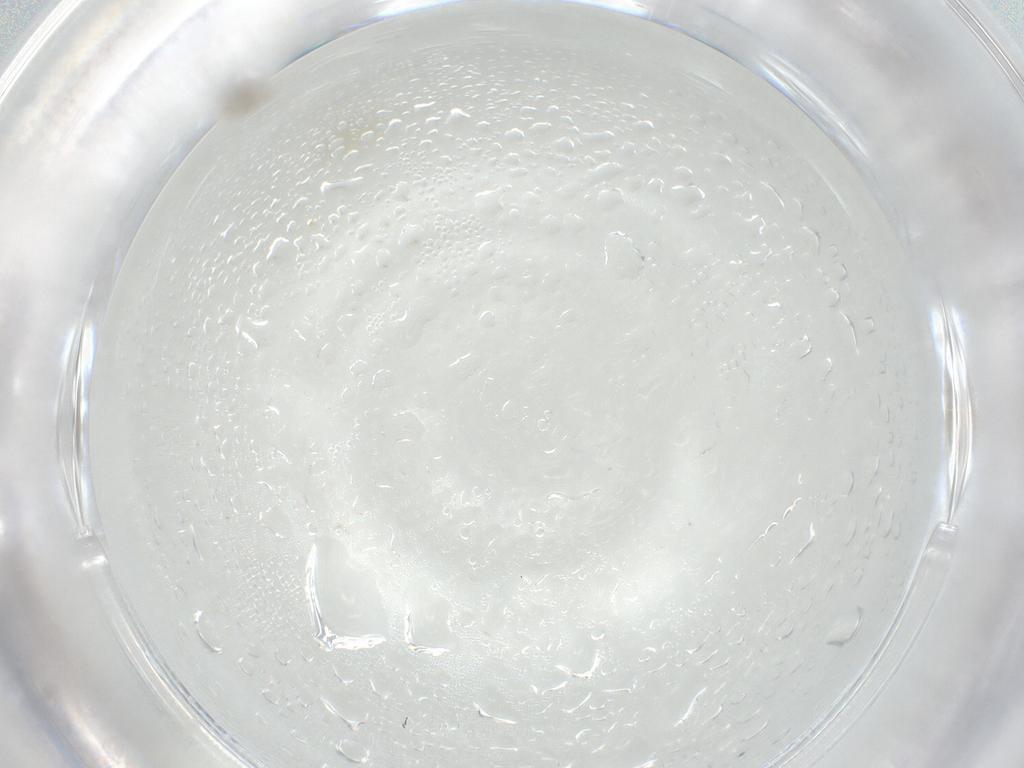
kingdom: Animalia
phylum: Arthropoda
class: Insecta
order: Diptera
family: Cecidomyiidae
